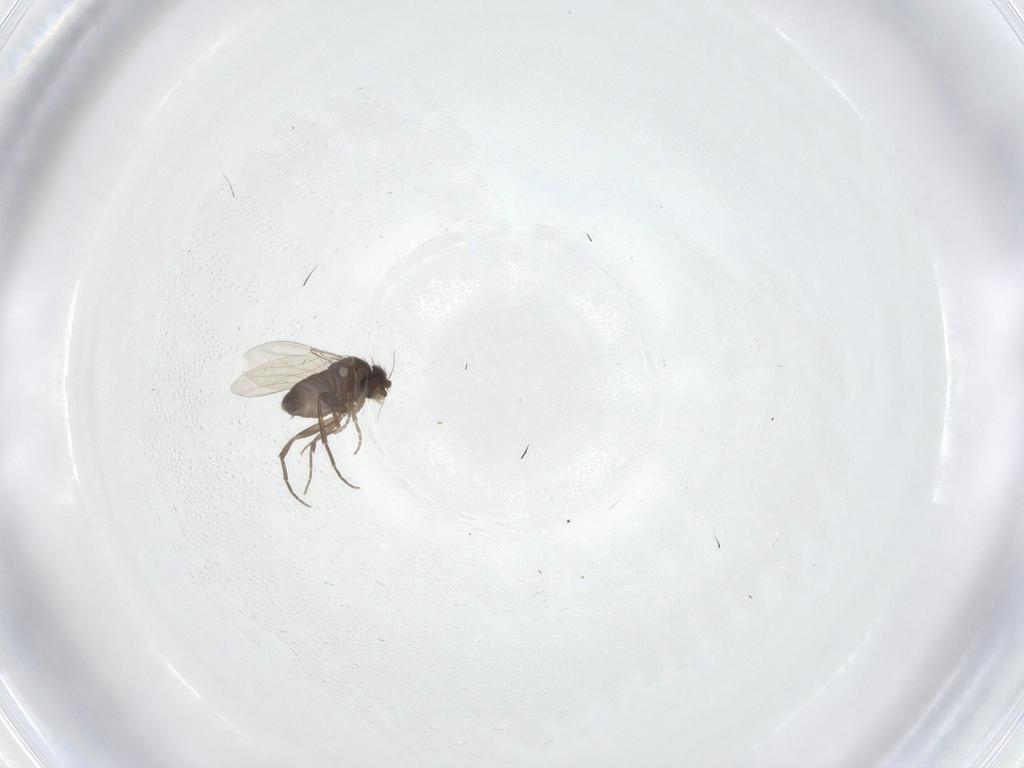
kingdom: Animalia
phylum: Arthropoda
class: Insecta
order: Diptera
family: Phoridae
